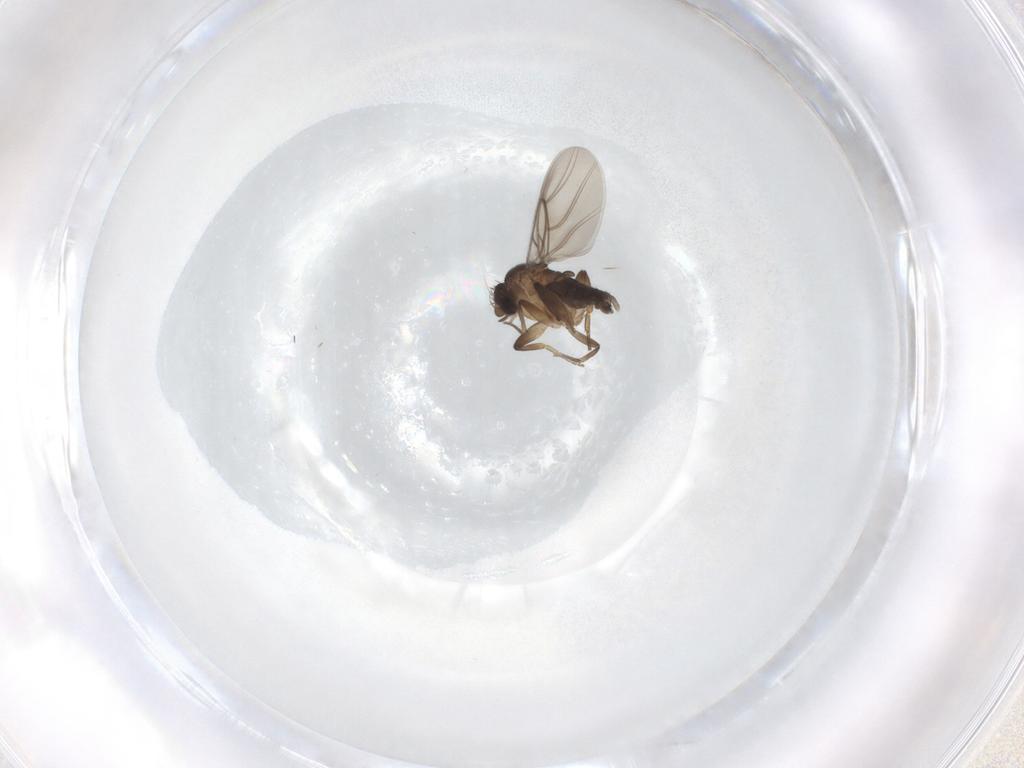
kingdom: Animalia
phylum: Arthropoda
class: Insecta
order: Diptera
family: Phoridae
